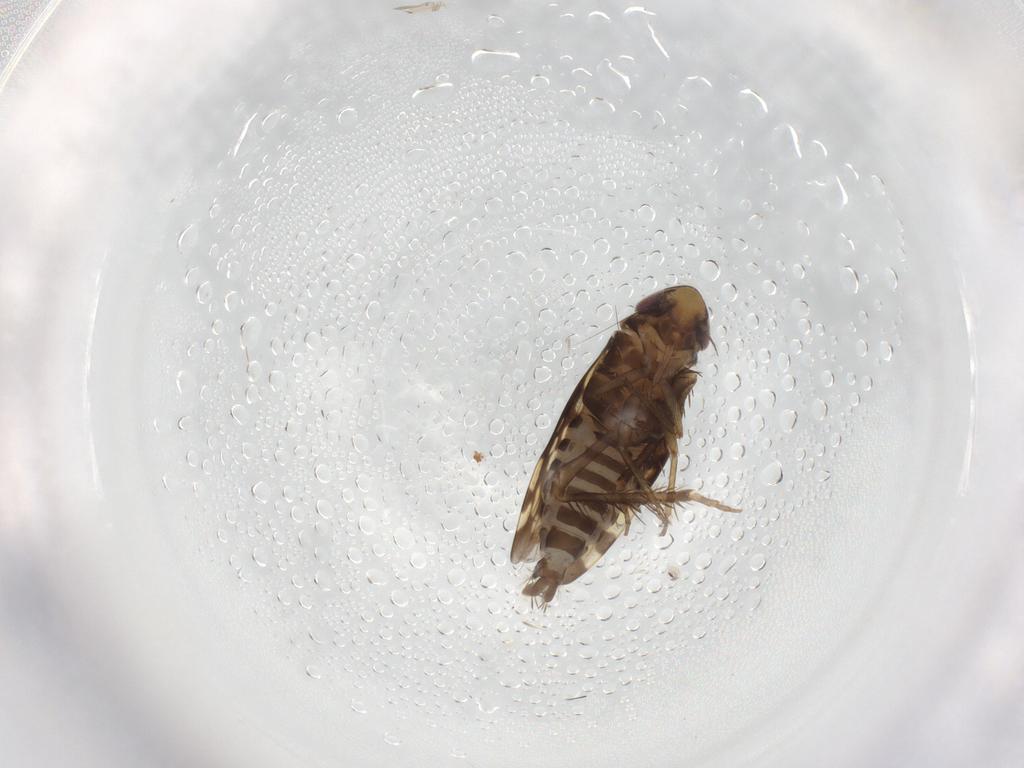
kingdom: Animalia
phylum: Arthropoda
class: Insecta
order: Hemiptera
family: Cicadellidae
